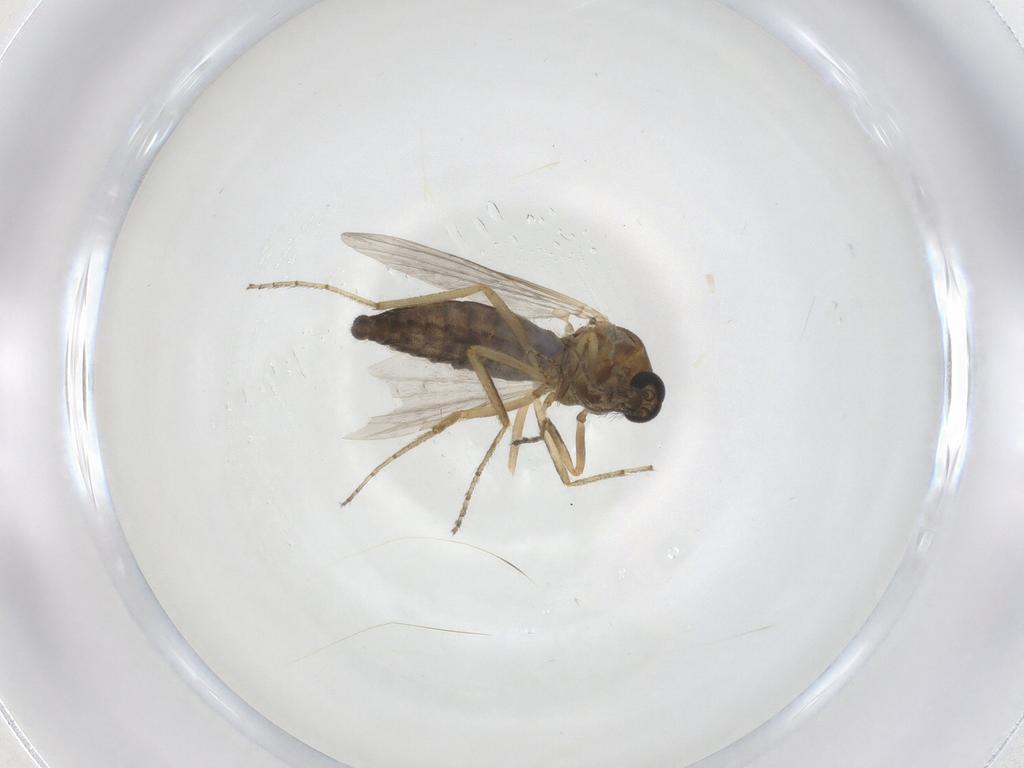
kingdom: Animalia
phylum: Arthropoda
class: Insecta
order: Diptera
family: Ceratopogonidae
